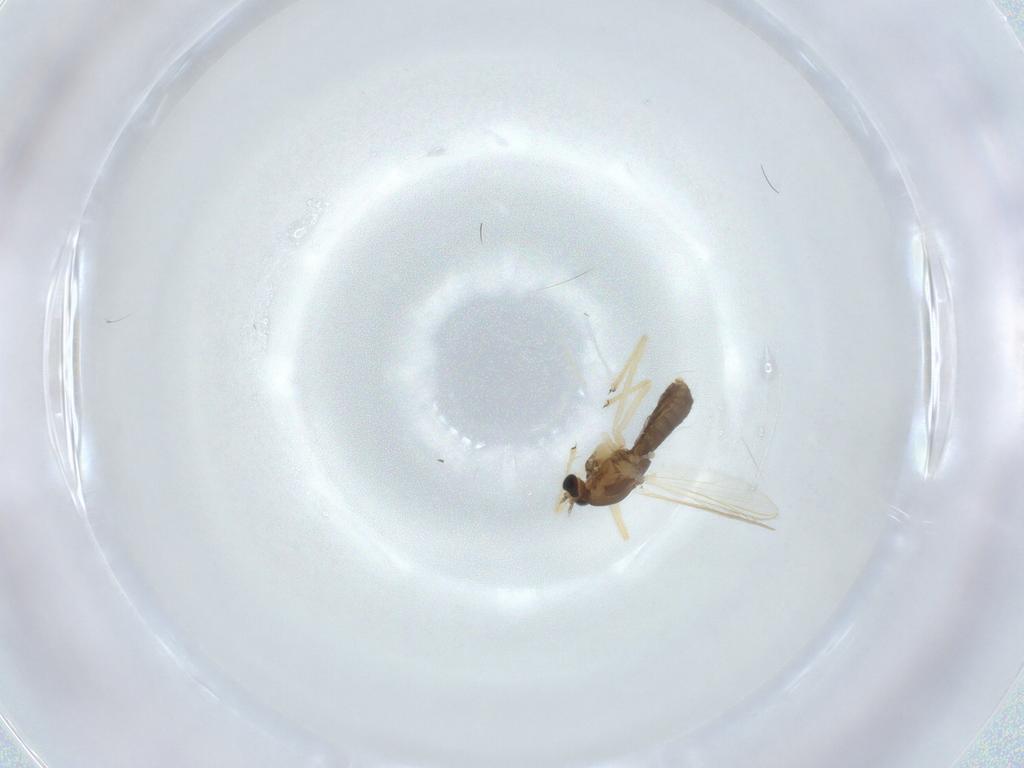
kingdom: Animalia
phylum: Arthropoda
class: Insecta
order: Diptera
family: Chironomidae
